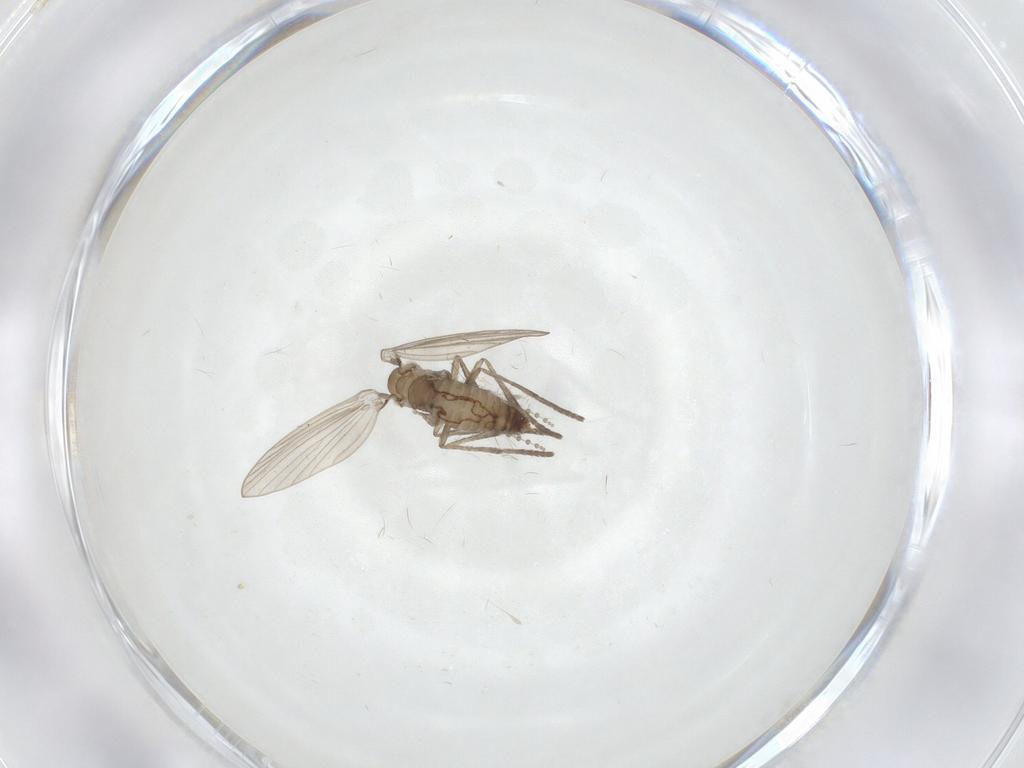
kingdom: Animalia
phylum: Arthropoda
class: Insecta
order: Diptera
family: Psychodidae
